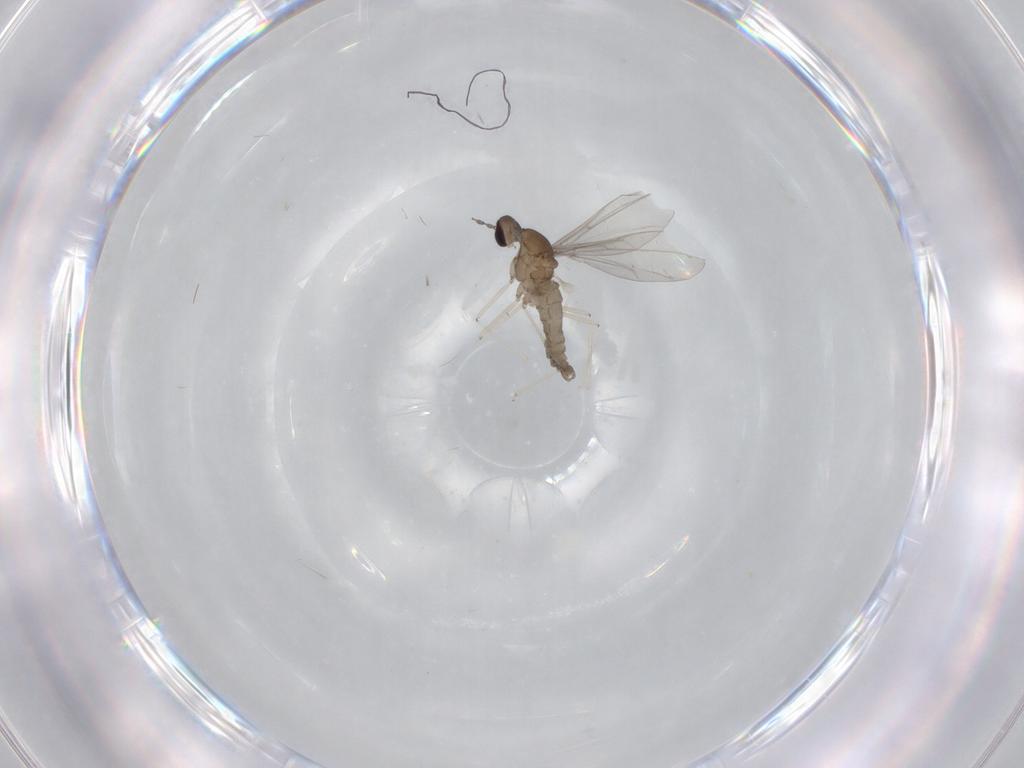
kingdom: Animalia
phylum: Arthropoda
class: Insecta
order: Diptera
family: Cecidomyiidae
